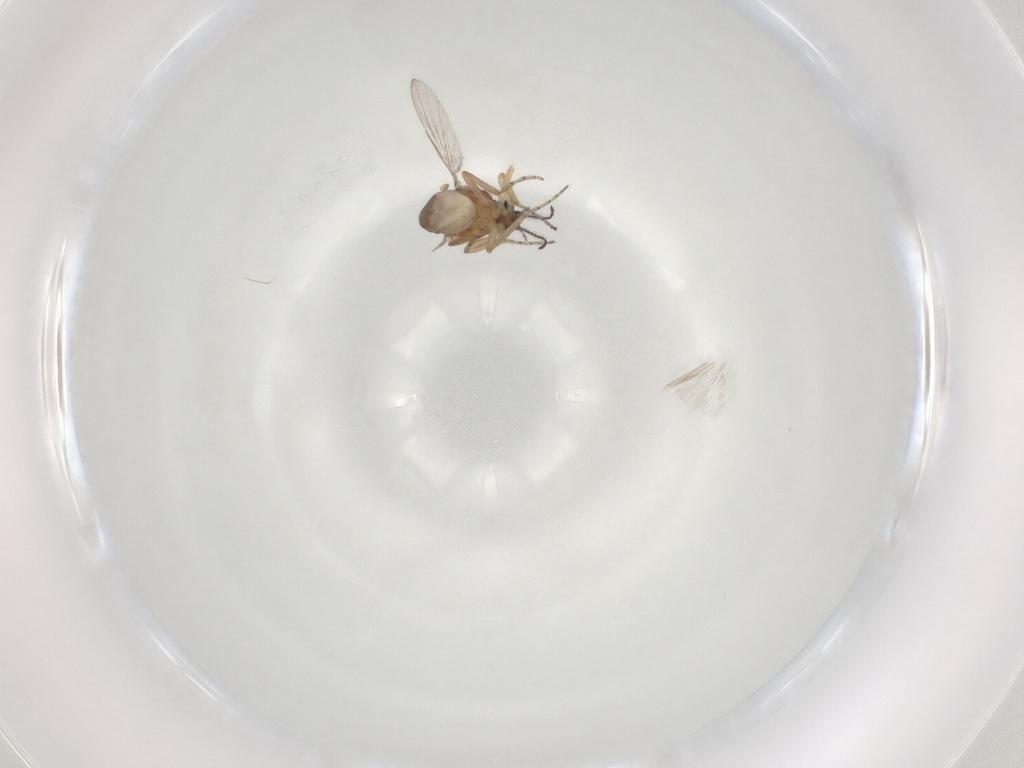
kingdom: Animalia
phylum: Arthropoda
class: Insecta
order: Diptera
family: Ceratopogonidae
